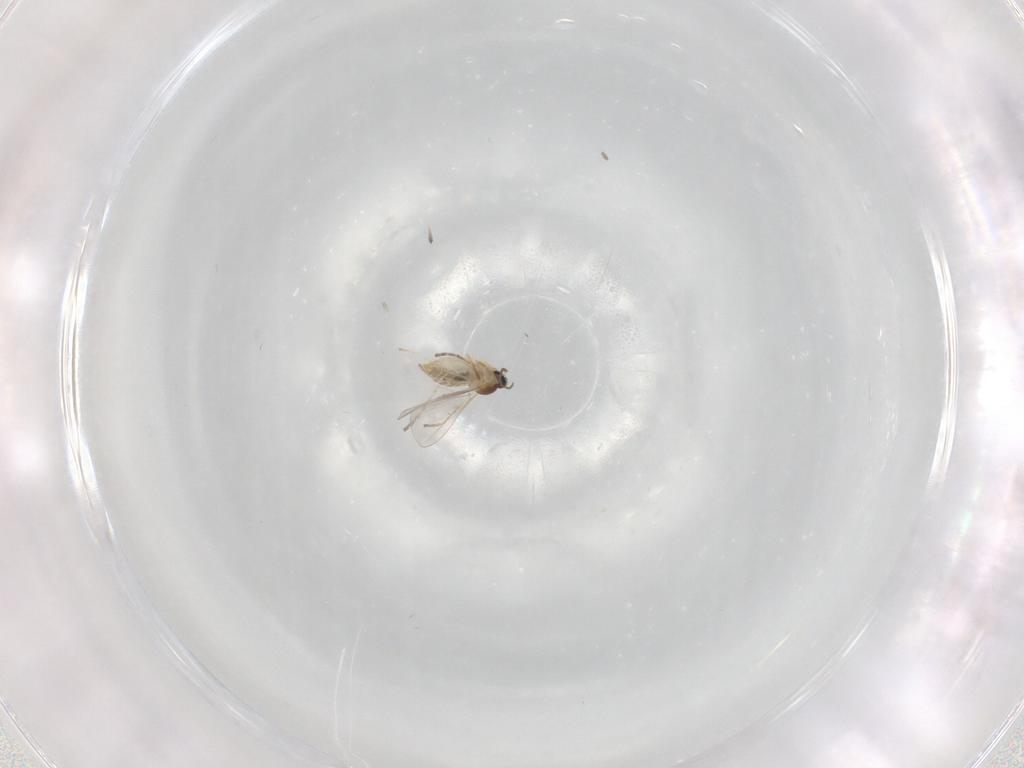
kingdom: Animalia
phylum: Arthropoda
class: Insecta
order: Diptera
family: Cecidomyiidae
